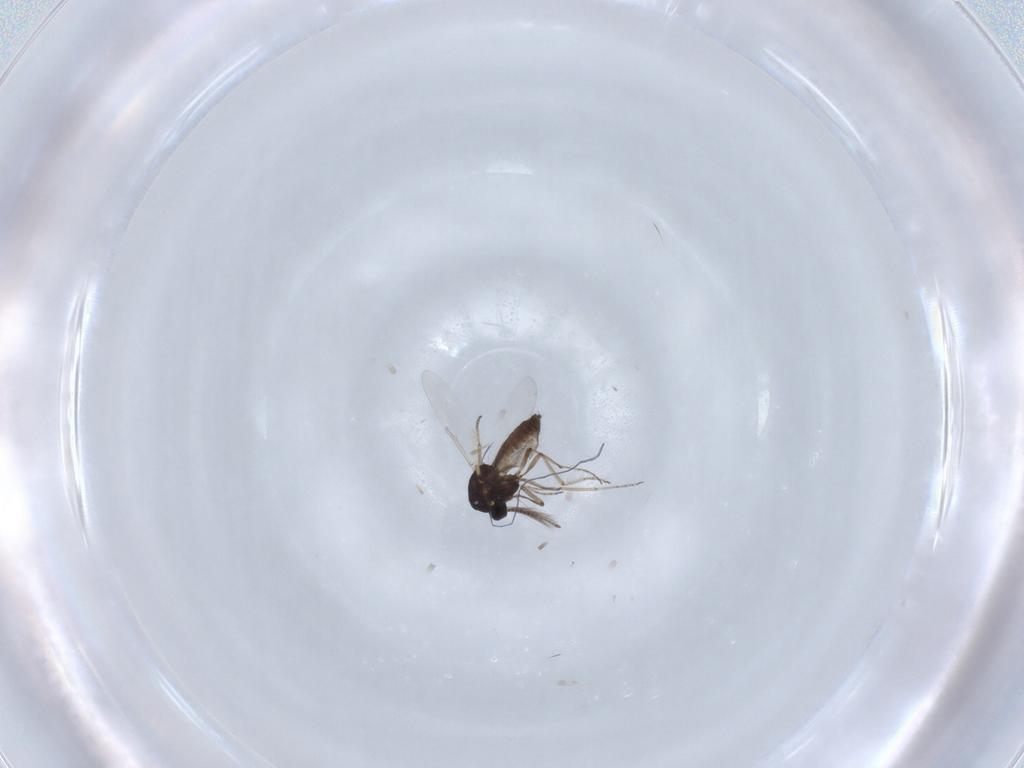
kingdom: Animalia
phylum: Arthropoda
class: Insecta
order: Diptera
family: Ceratopogonidae
